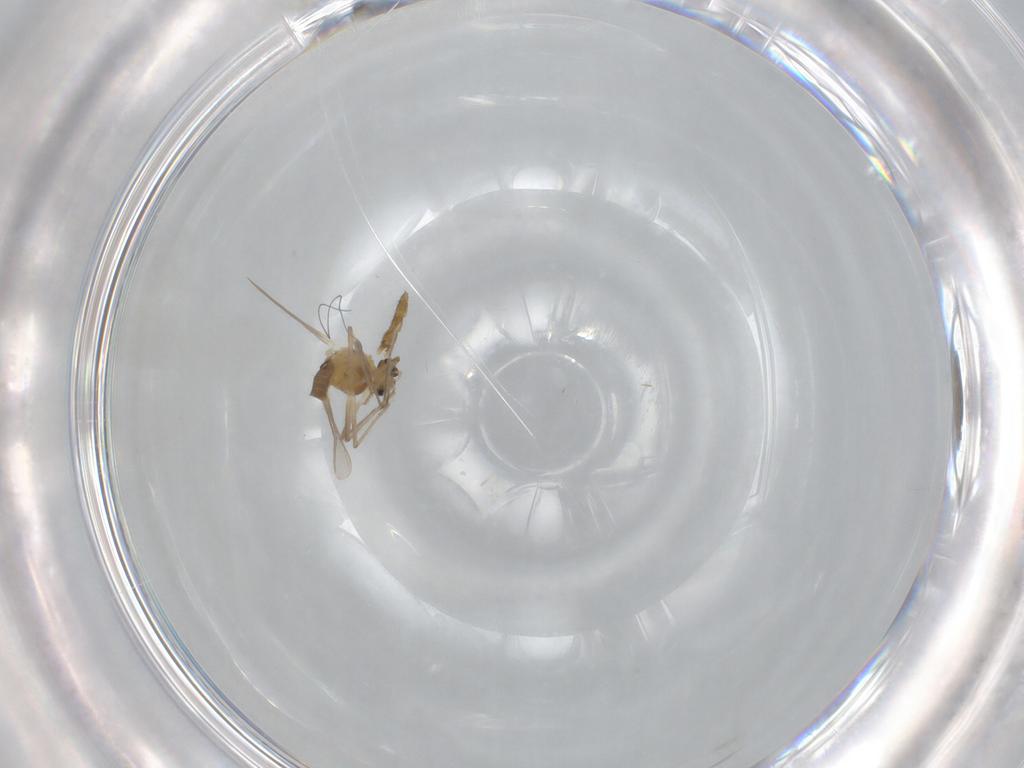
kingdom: Animalia
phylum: Arthropoda
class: Insecta
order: Diptera
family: Chironomidae
